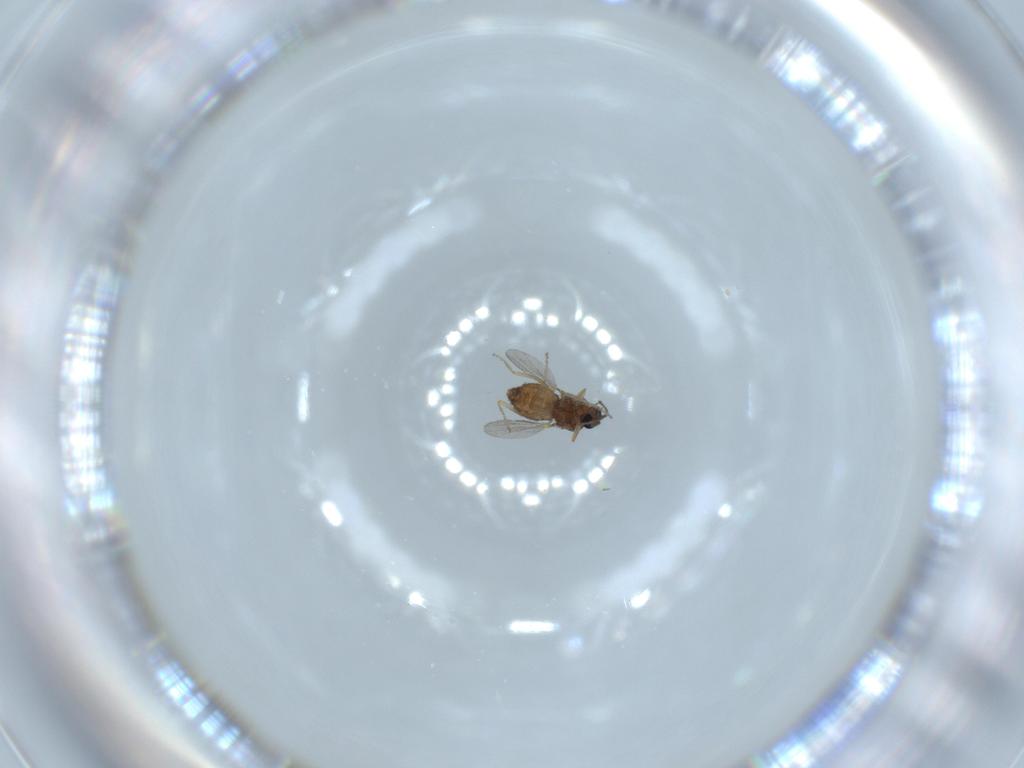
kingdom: Animalia
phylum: Arthropoda
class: Insecta
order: Diptera
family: Ceratopogonidae
